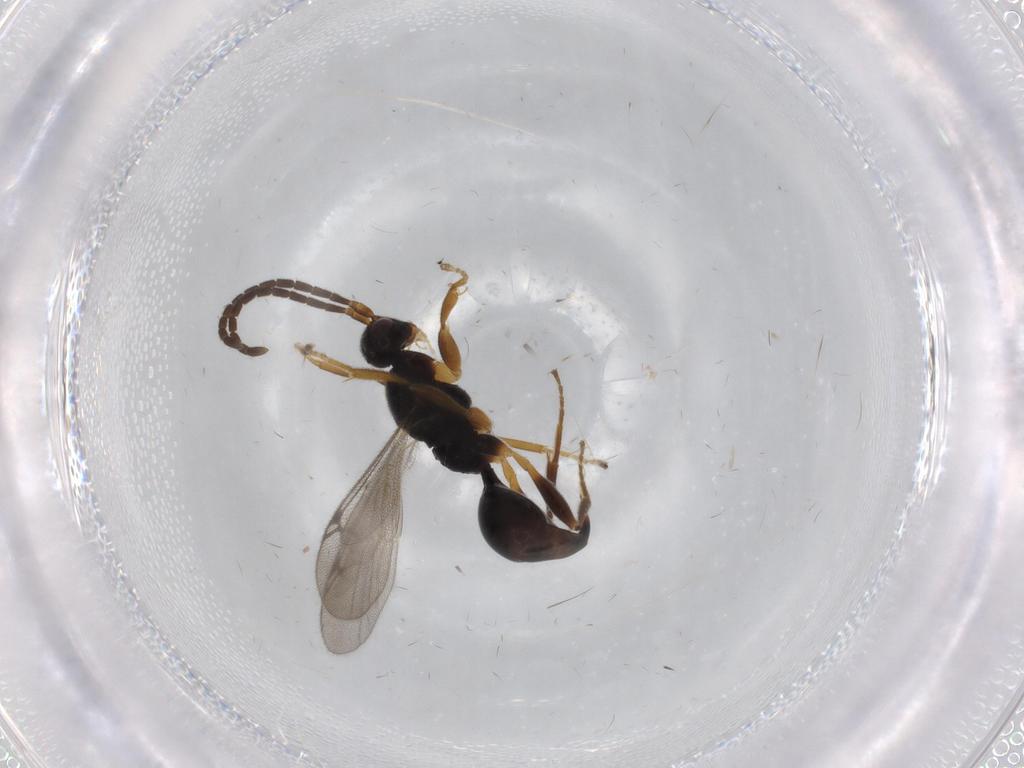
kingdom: Animalia
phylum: Arthropoda
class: Insecta
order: Hymenoptera
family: Proctotrupidae
